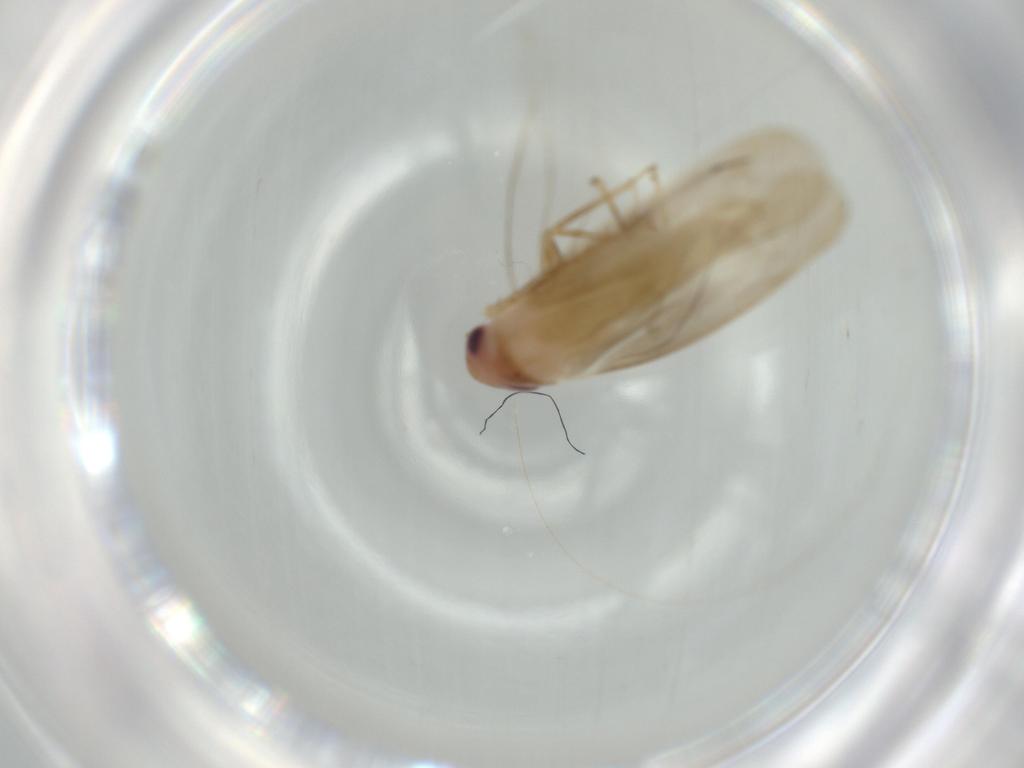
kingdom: Animalia
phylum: Arthropoda
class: Insecta
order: Hemiptera
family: Cicadellidae
